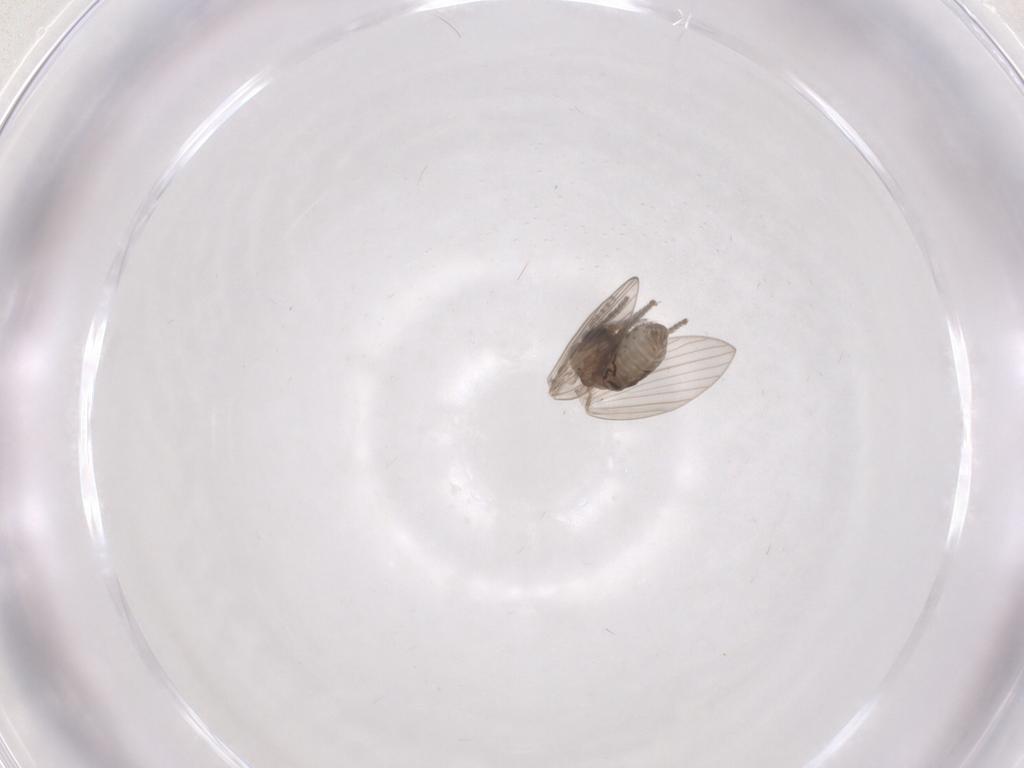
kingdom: Animalia
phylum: Arthropoda
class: Insecta
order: Diptera
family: Psychodidae
